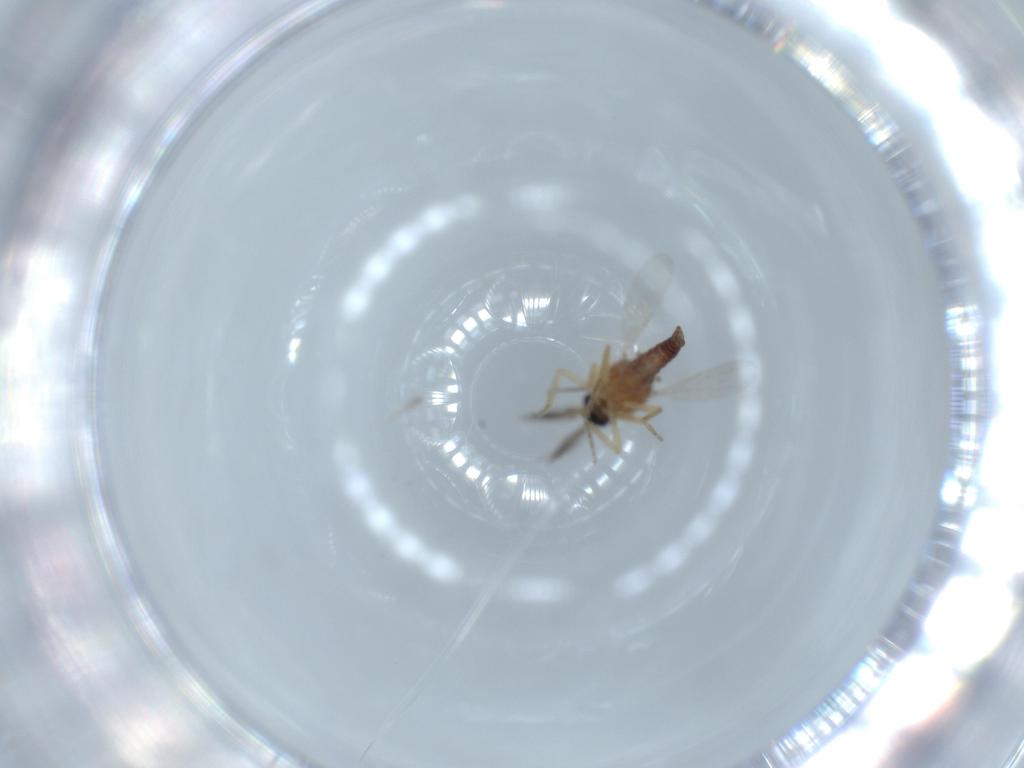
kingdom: Animalia
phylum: Arthropoda
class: Insecta
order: Diptera
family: Ceratopogonidae
